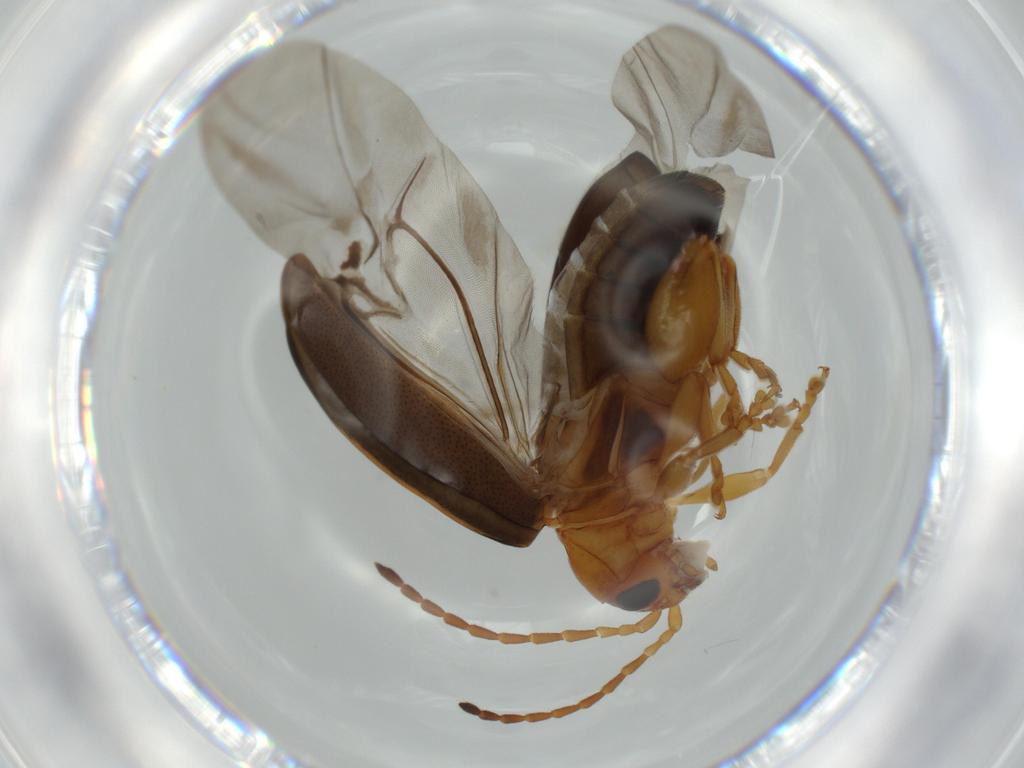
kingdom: Animalia
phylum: Arthropoda
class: Insecta
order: Coleoptera
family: Chrysomelidae
